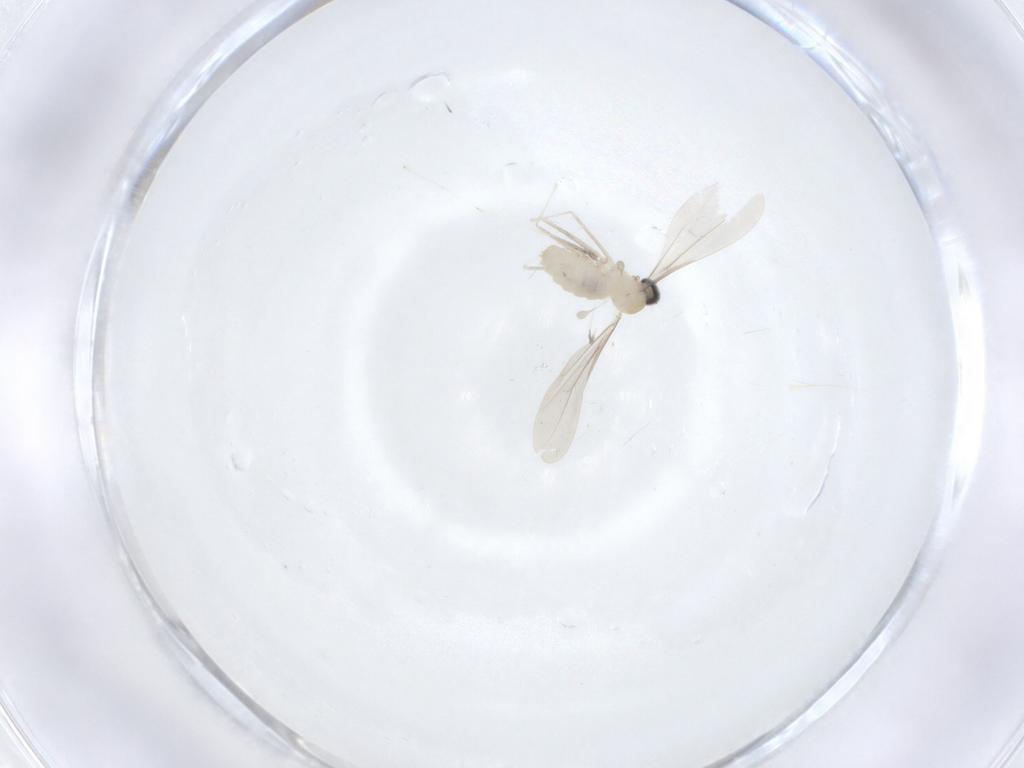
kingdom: Animalia
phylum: Arthropoda
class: Insecta
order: Diptera
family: Cecidomyiidae
